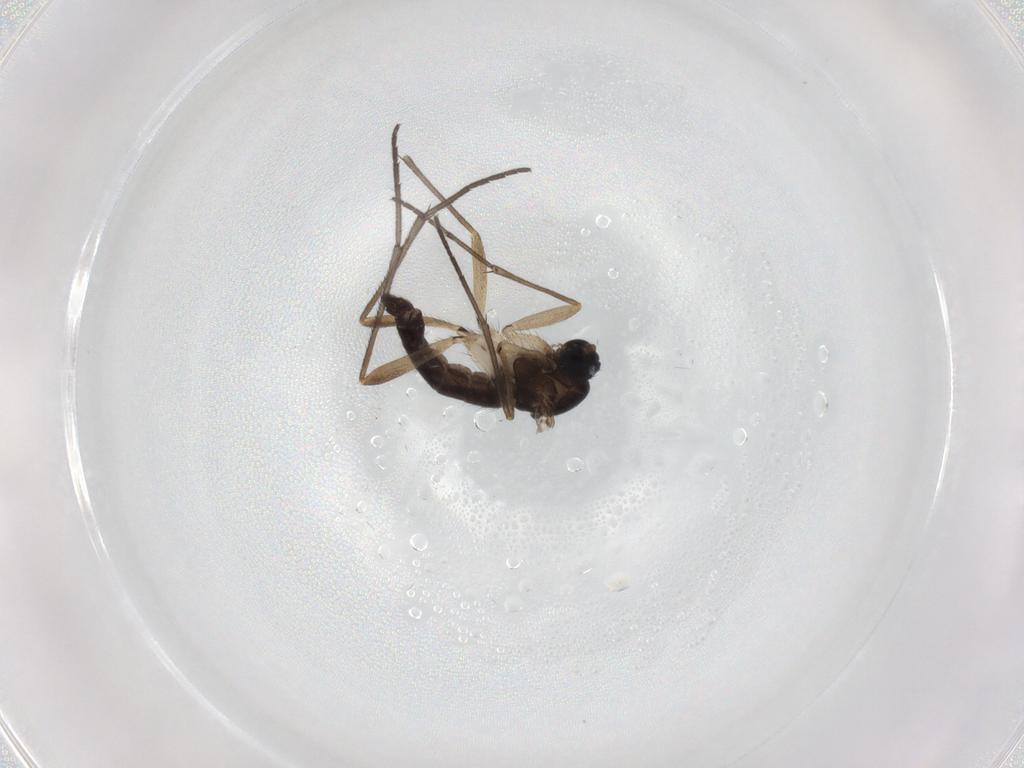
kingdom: Animalia
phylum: Arthropoda
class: Insecta
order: Diptera
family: Sciaridae
